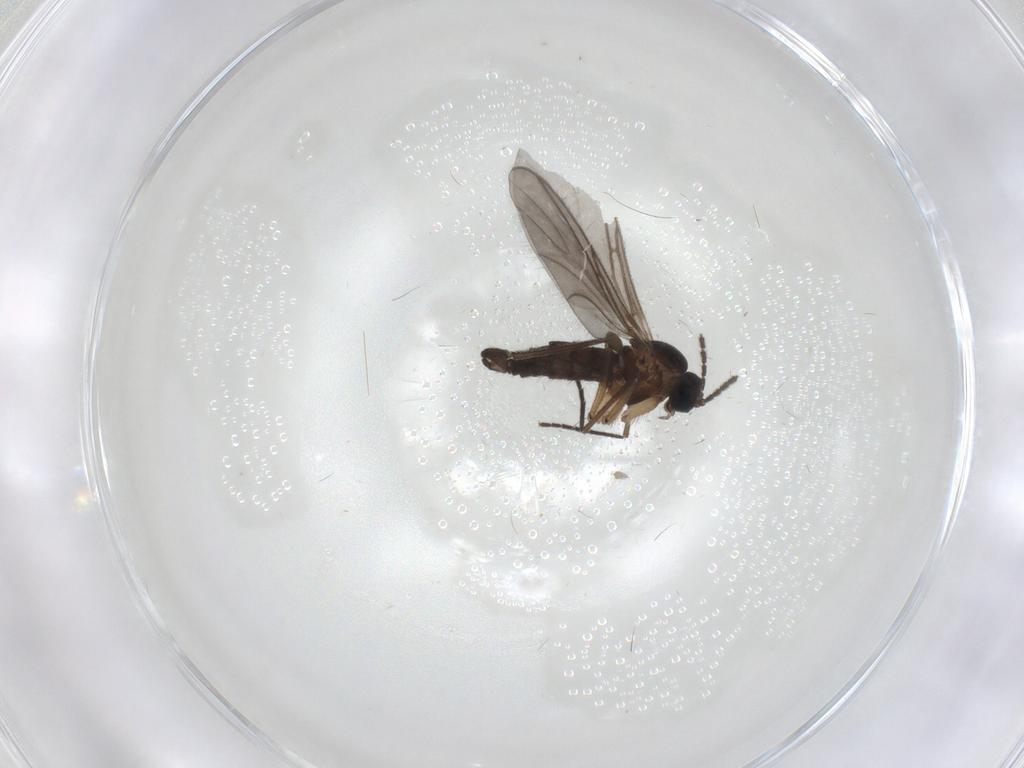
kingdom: Animalia
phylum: Arthropoda
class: Insecta
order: Diptera
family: Sciaridae
